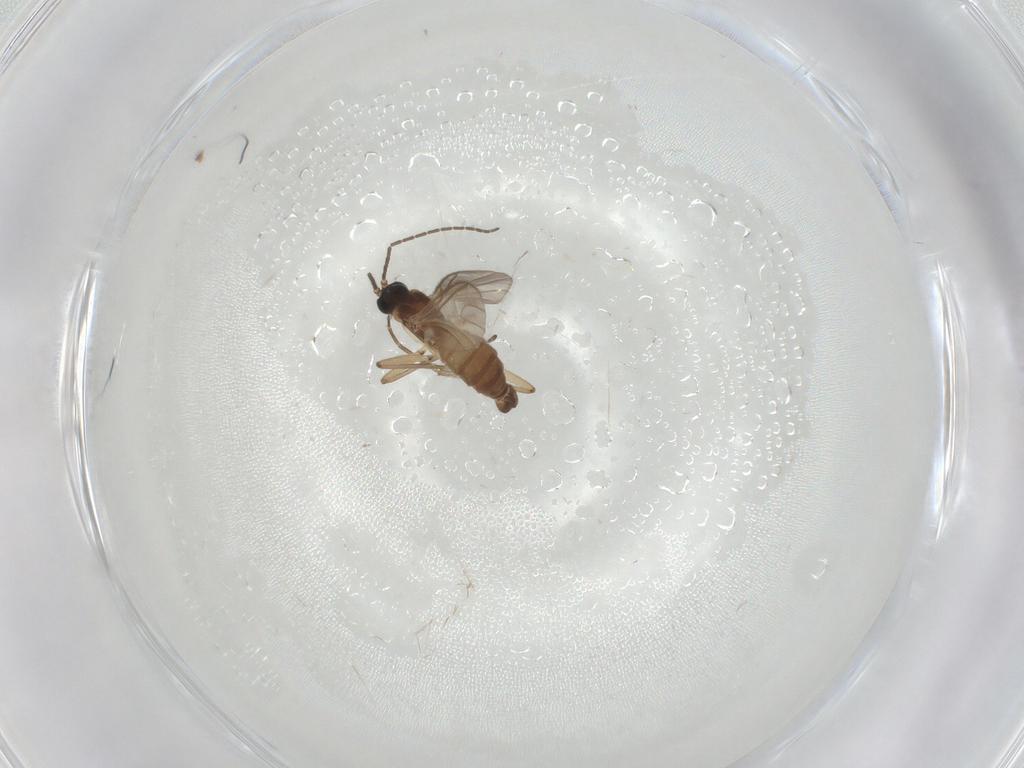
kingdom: Animalia
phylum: Arthropoda
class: Insecta
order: Diptera
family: Sciaridae
